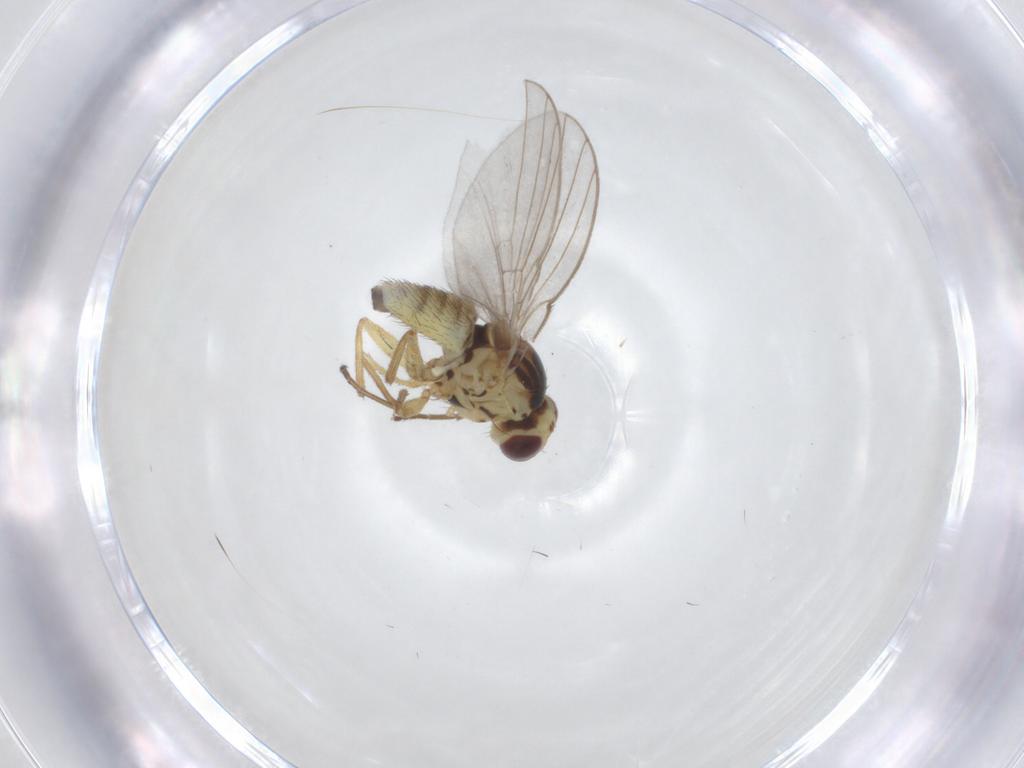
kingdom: Animalia
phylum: Arthropoda
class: Insecta
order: Diptera
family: Agromyzidae
